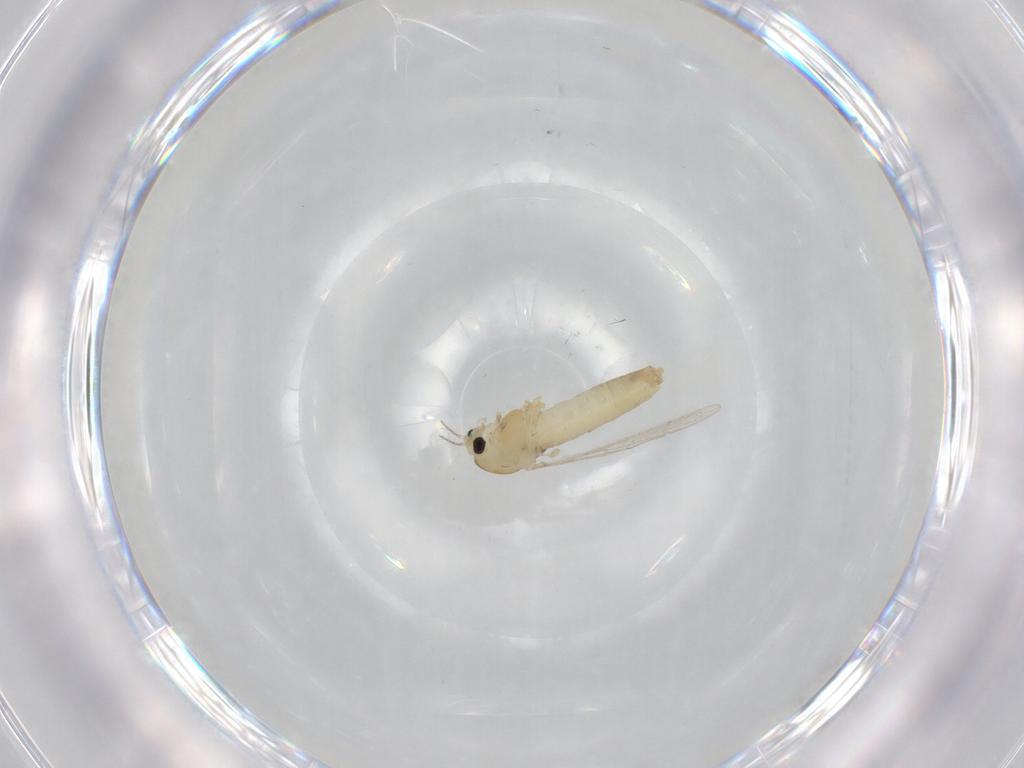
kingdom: Animalia
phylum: Arthropoda
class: Insecta
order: Diptera
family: Chironomidae
